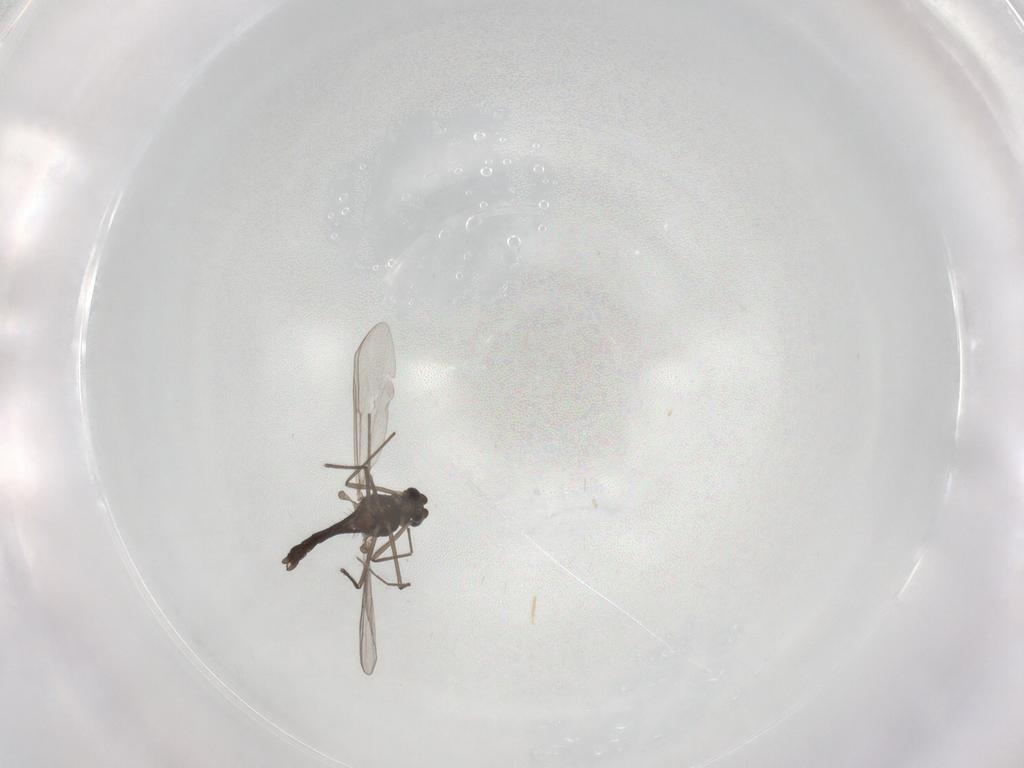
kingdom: Animalia
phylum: Arthropoda
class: Insecta
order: Diptera
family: Chironomidae
